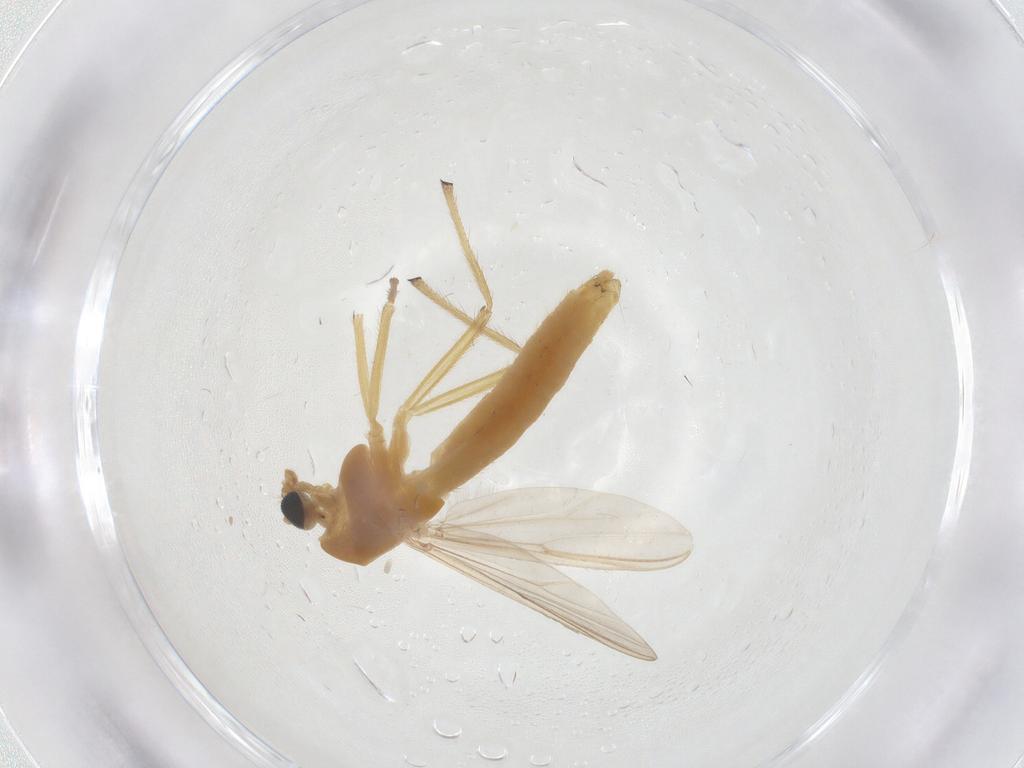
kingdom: Animalia
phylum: Arthropoda
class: Insecta
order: Diptera
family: Chironomidae
